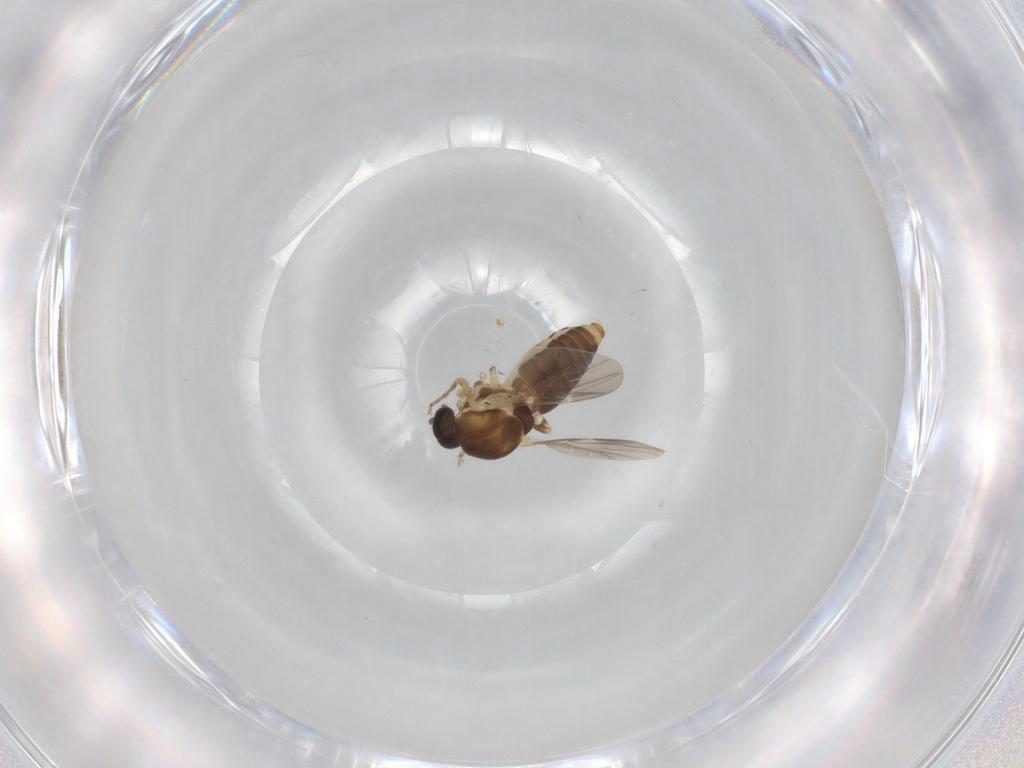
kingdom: Animalia
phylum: Arthropoda
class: Insecta
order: Diptera
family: Ceratopogonidae
